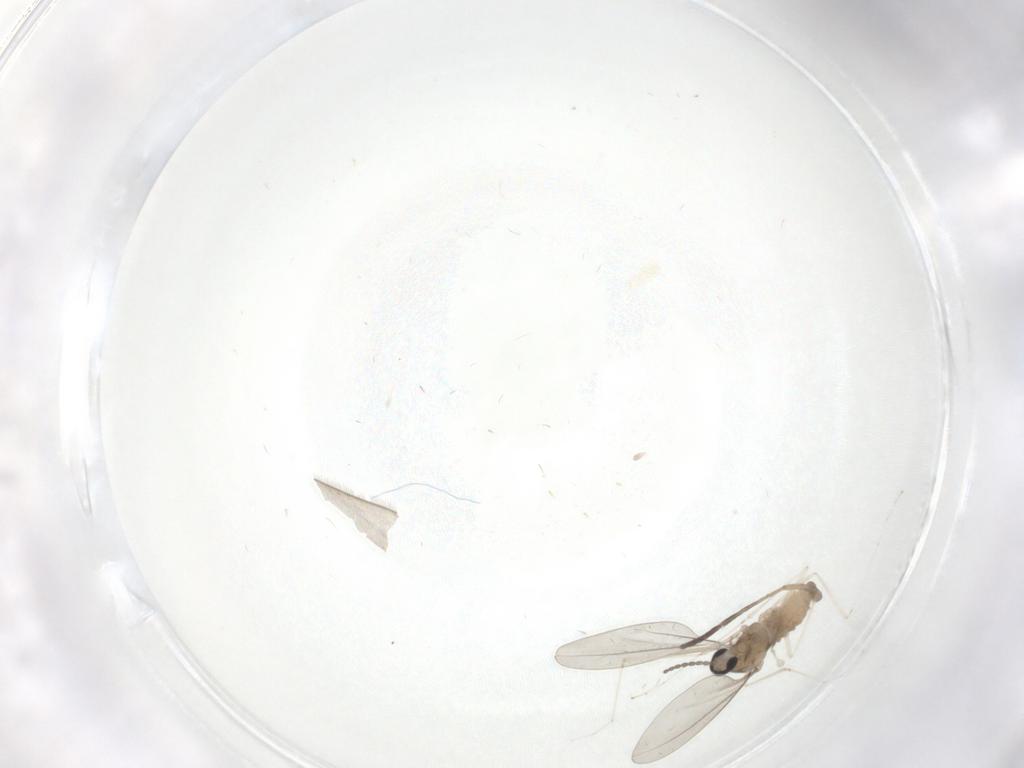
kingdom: Animalia
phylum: Arthropoda
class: Insecta
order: Diptera
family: Cecidomyiidae
